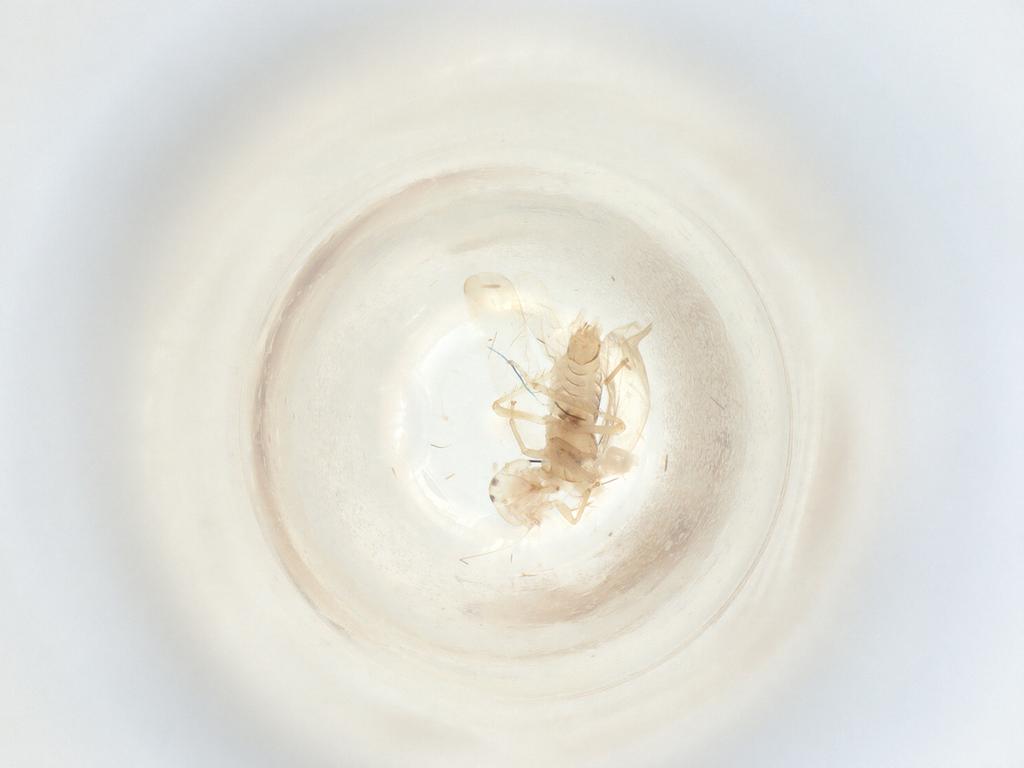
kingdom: Animalia
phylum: Arthropoda
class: Insecta
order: Hemiptera
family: Cicadellidae
